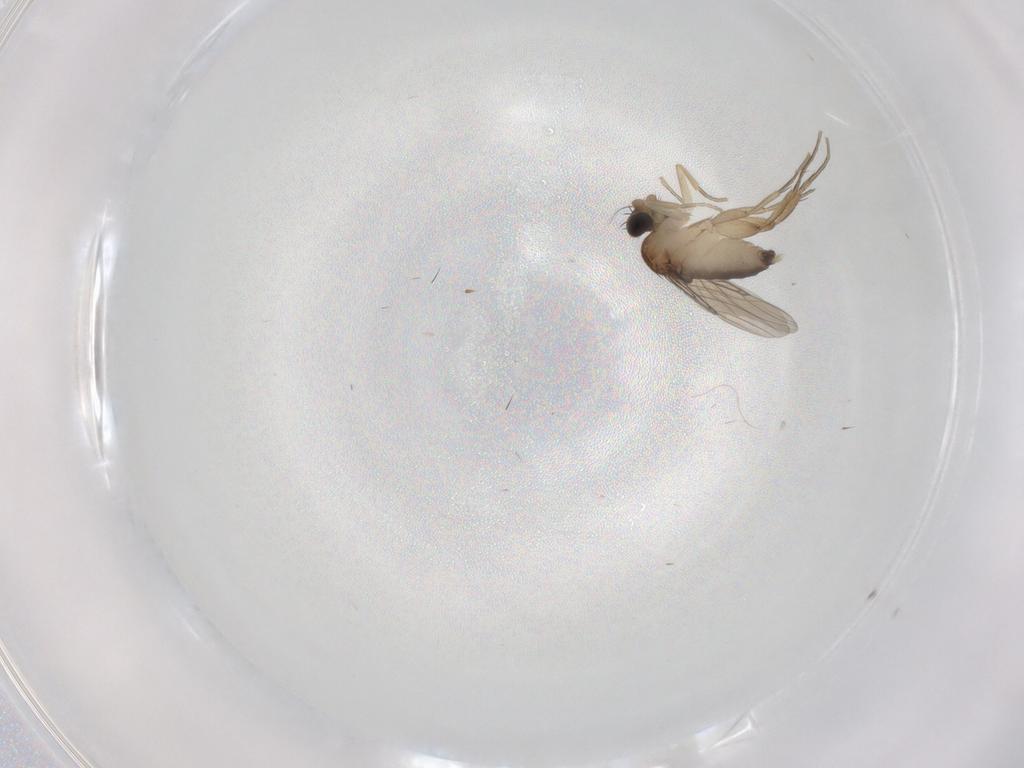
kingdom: Animalia
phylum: Arthropoda
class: Insecta
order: Diptera
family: Phoridae
